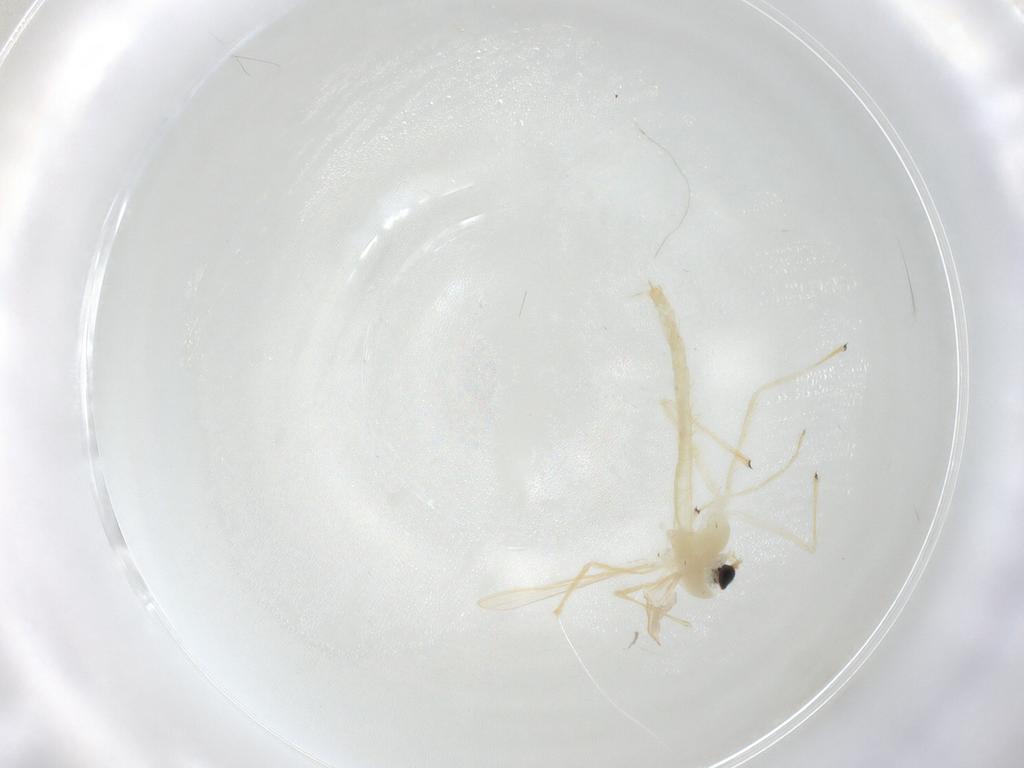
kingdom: Animalia
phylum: Arthropoda
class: Insecta
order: Diptera
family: Chironomidae
